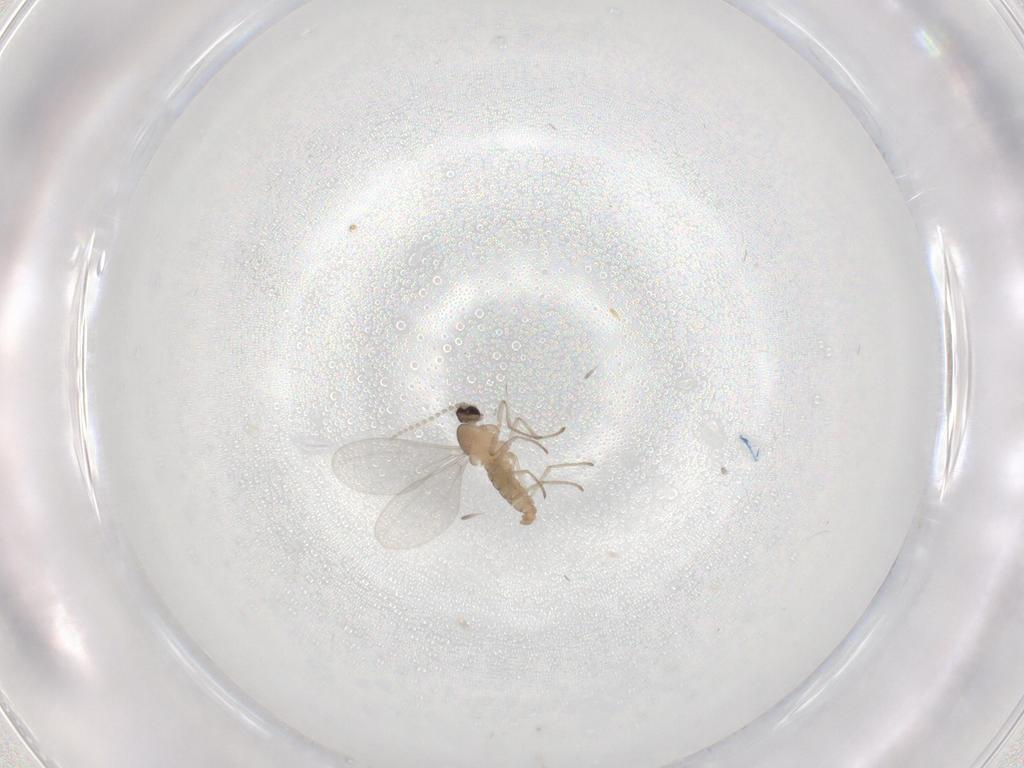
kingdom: Animalia
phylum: Arthropoda
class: Insecta
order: Diptera
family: Cecidomyiidae
